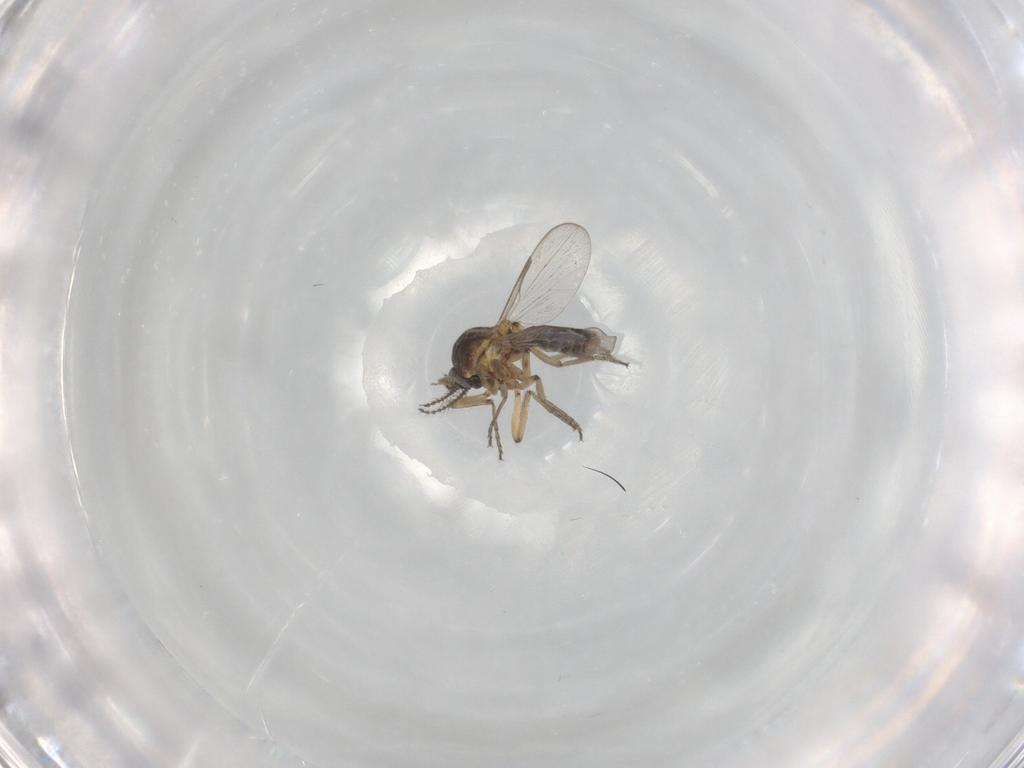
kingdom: Animalia
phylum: Arthropoda
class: Insecta
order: Diptera
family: Ceratopogonidae
